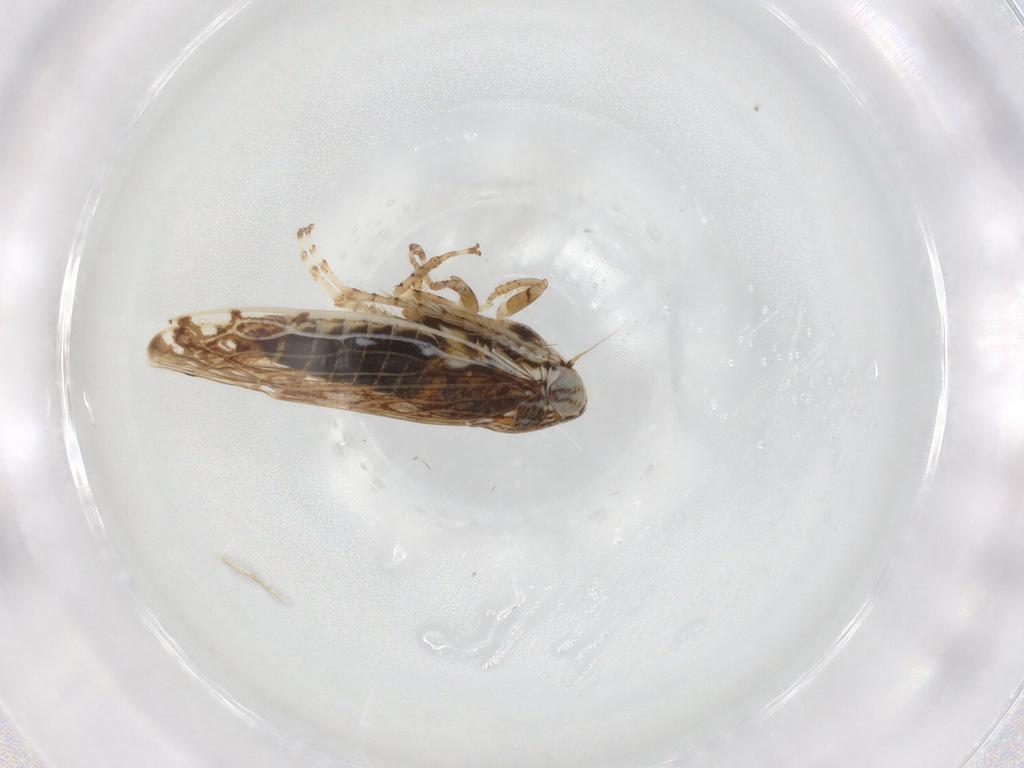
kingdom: Animalia
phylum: Arthropoda
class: Insecta
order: Hemiptera
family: Cicadellidae
